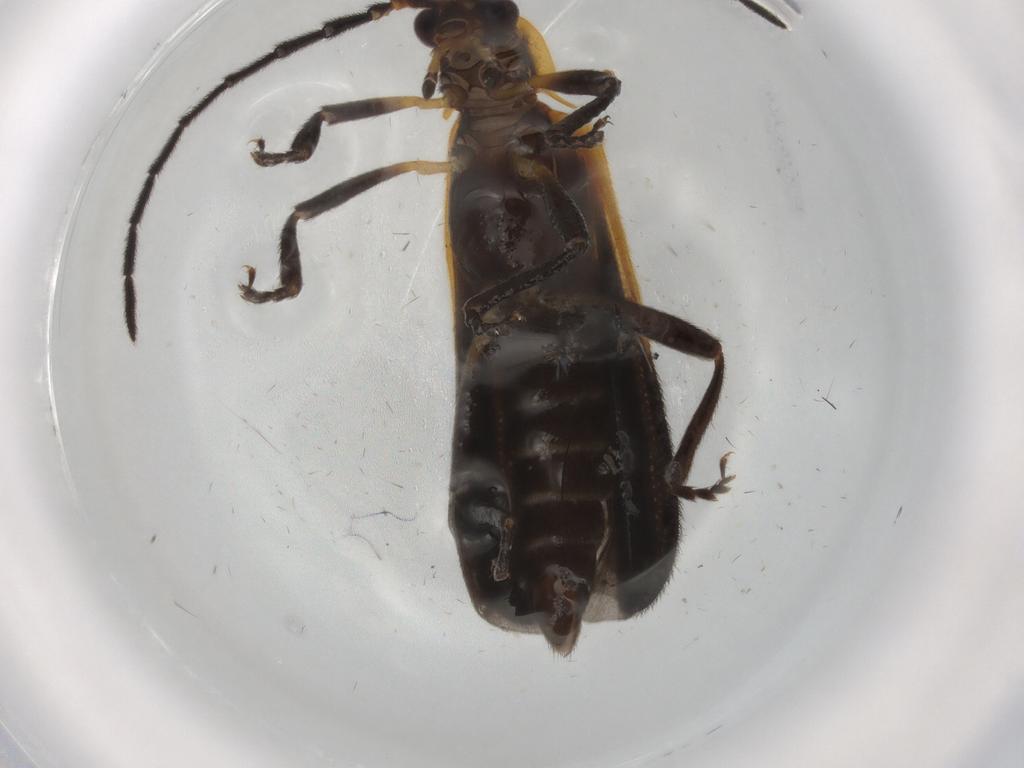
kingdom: Animalia
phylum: Arthropoda
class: Insecta
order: Coleoptera
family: Lycidae
